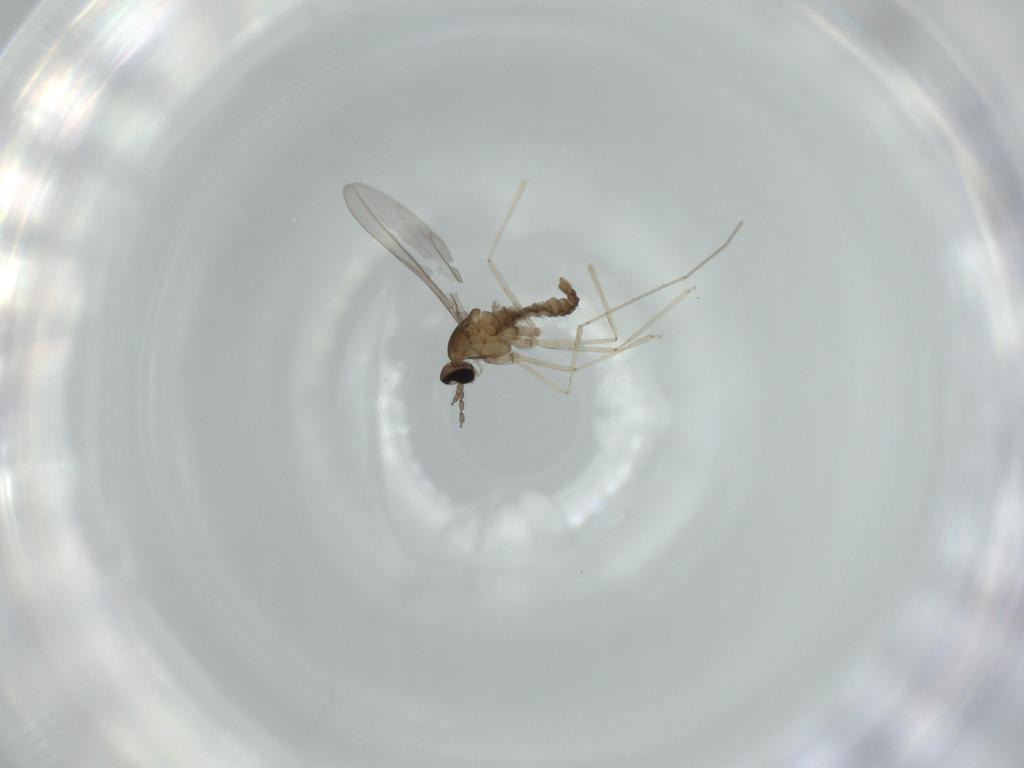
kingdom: Animalia
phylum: Arthropoda
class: Insecta
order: Diptera
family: Cecidomyiidae
